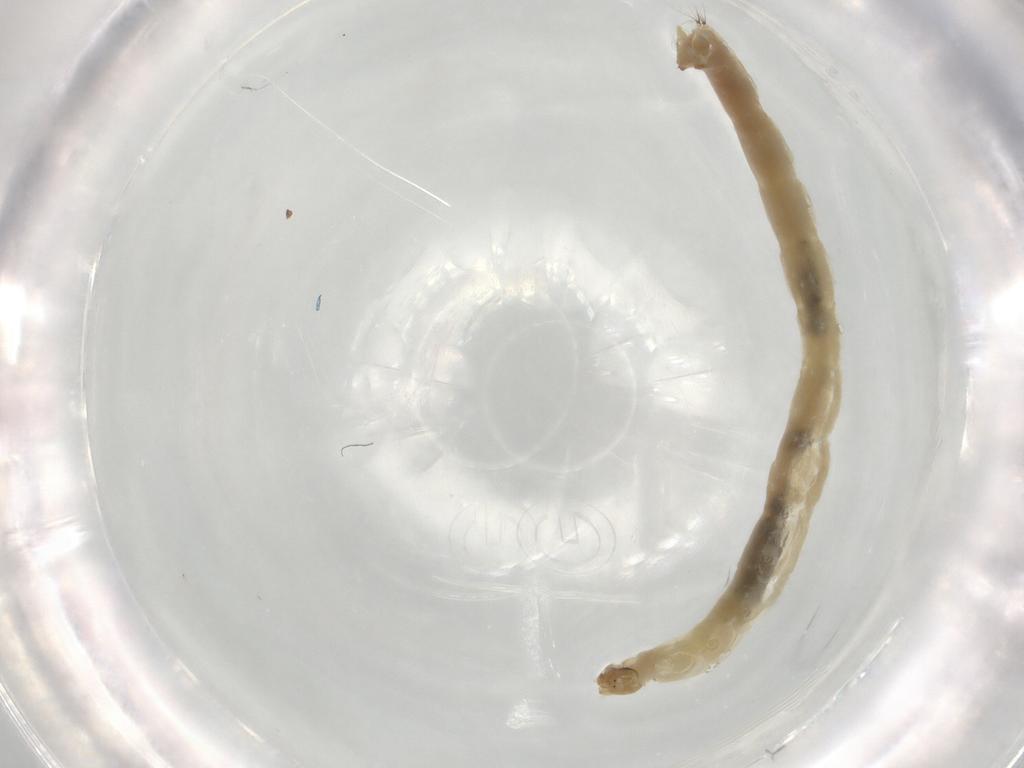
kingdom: Animalia
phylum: Arthropoda
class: Insecta
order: Diptera
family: Chironomidae
